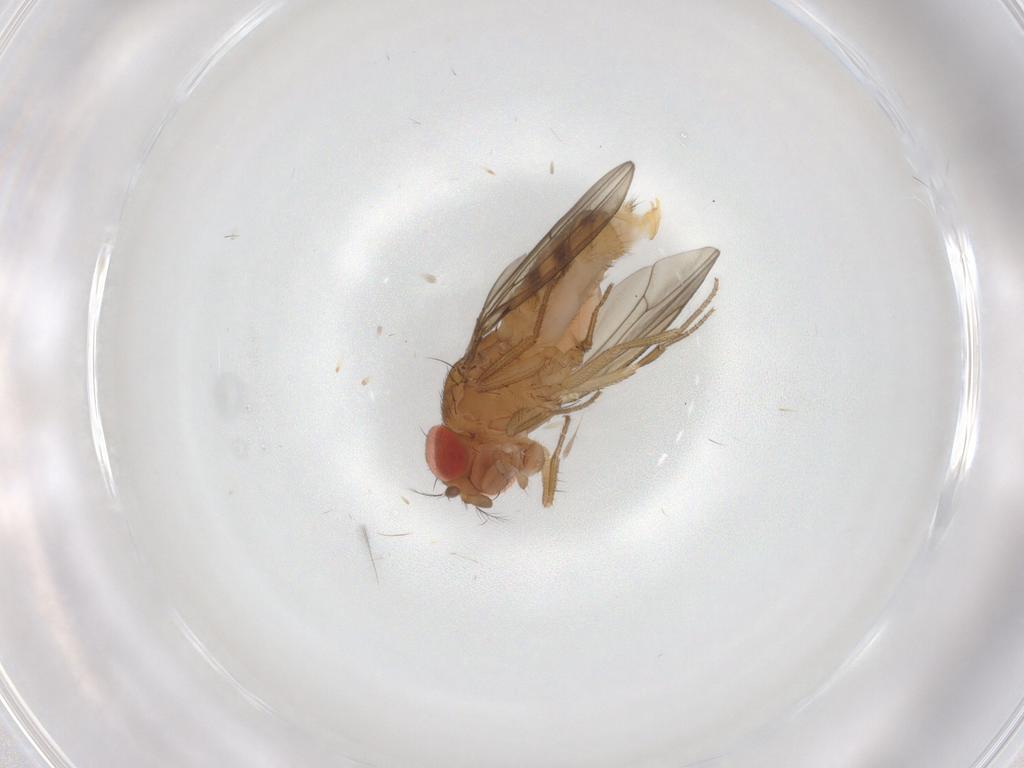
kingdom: Animalia
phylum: Arthropoda
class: Insecta
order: Diptera
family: Drosophilidae
